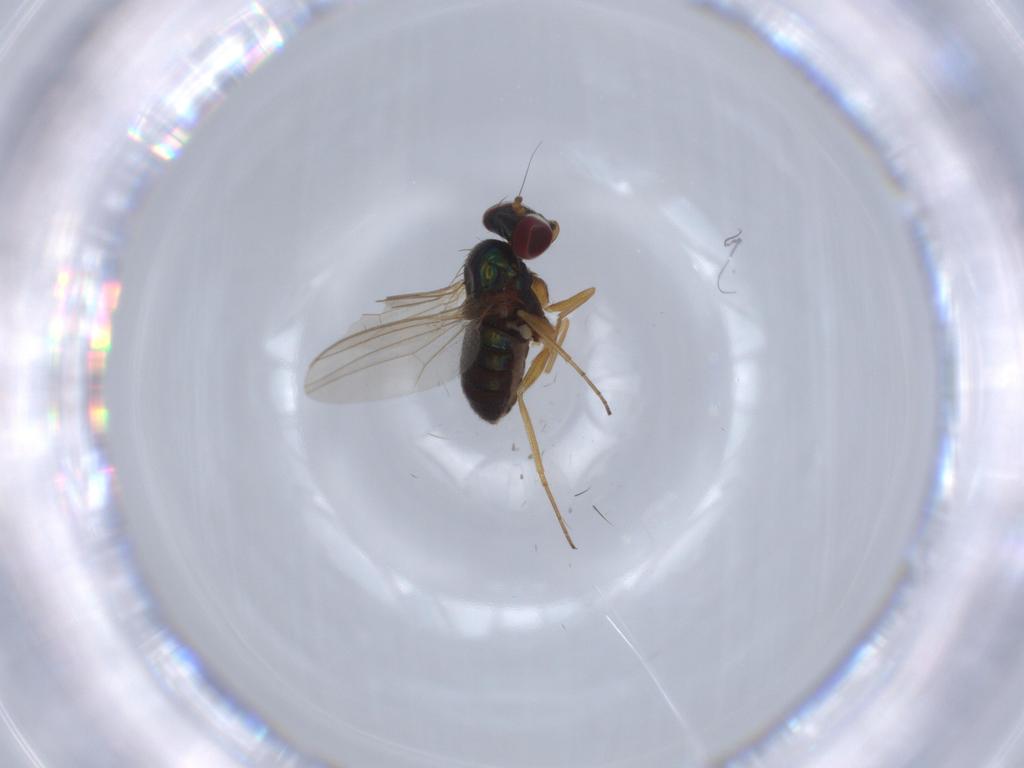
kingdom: Animalia
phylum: Arthropoda
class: Insecta
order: Diptera
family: Dolichopodidae
